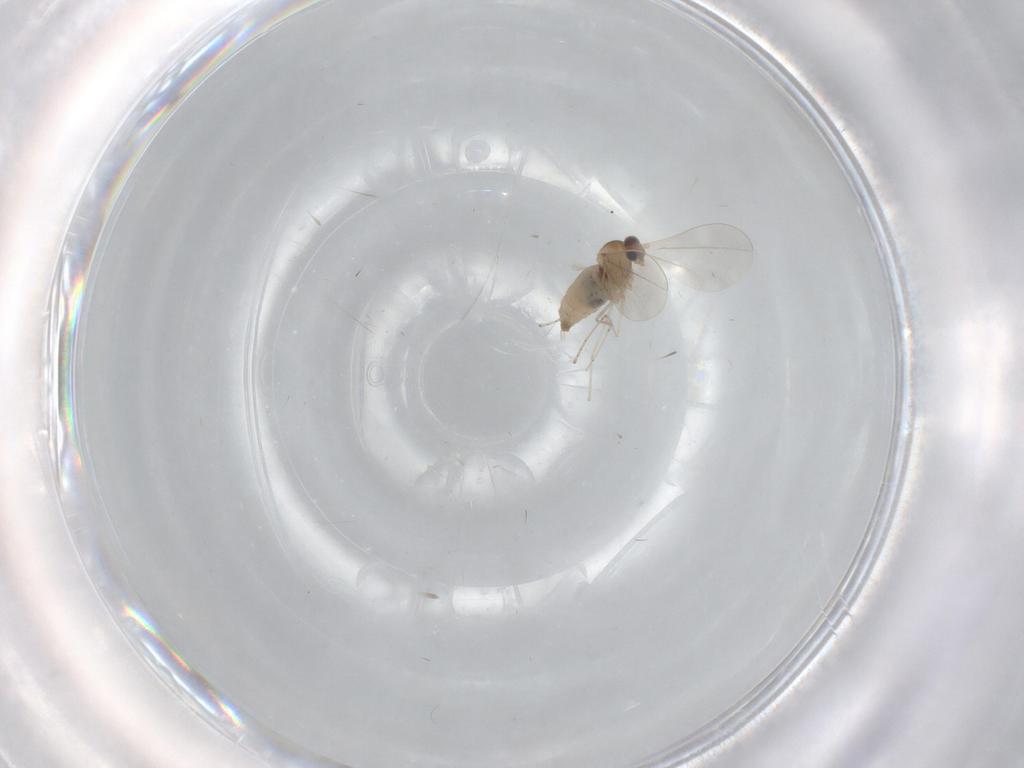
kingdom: Animalia
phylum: Arthropoda
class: Insecta
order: Diptera
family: Cecidomyiidae
